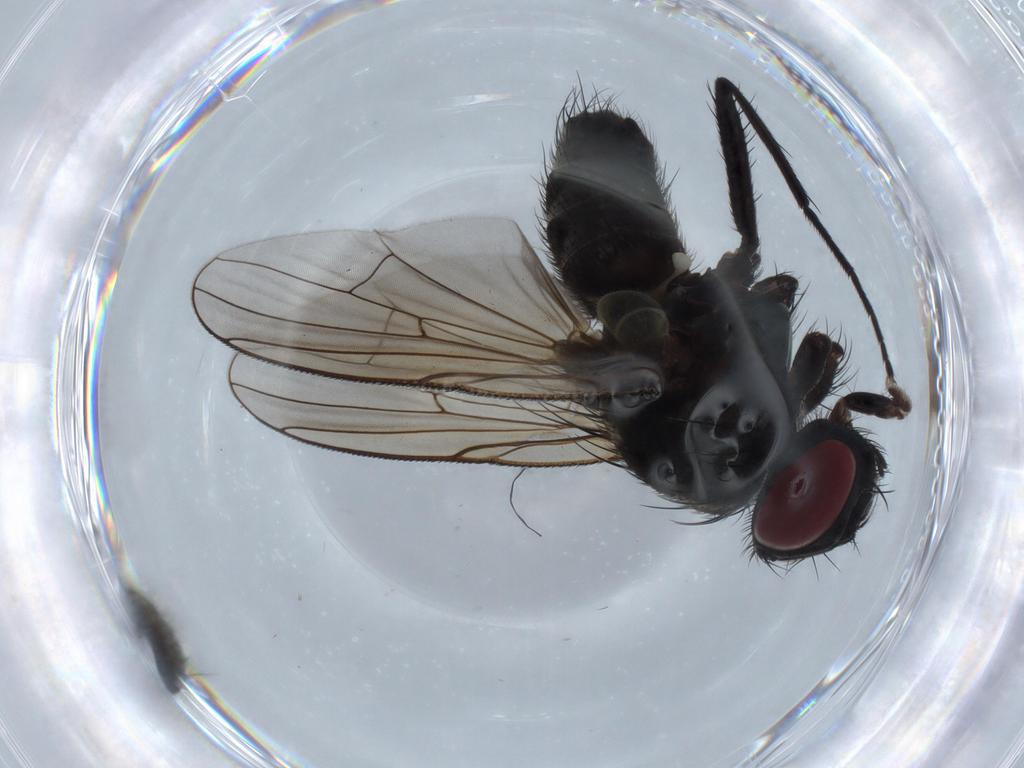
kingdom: Animalia
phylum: Arthropoda
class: Insecta
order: Diptera
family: Muscidae
